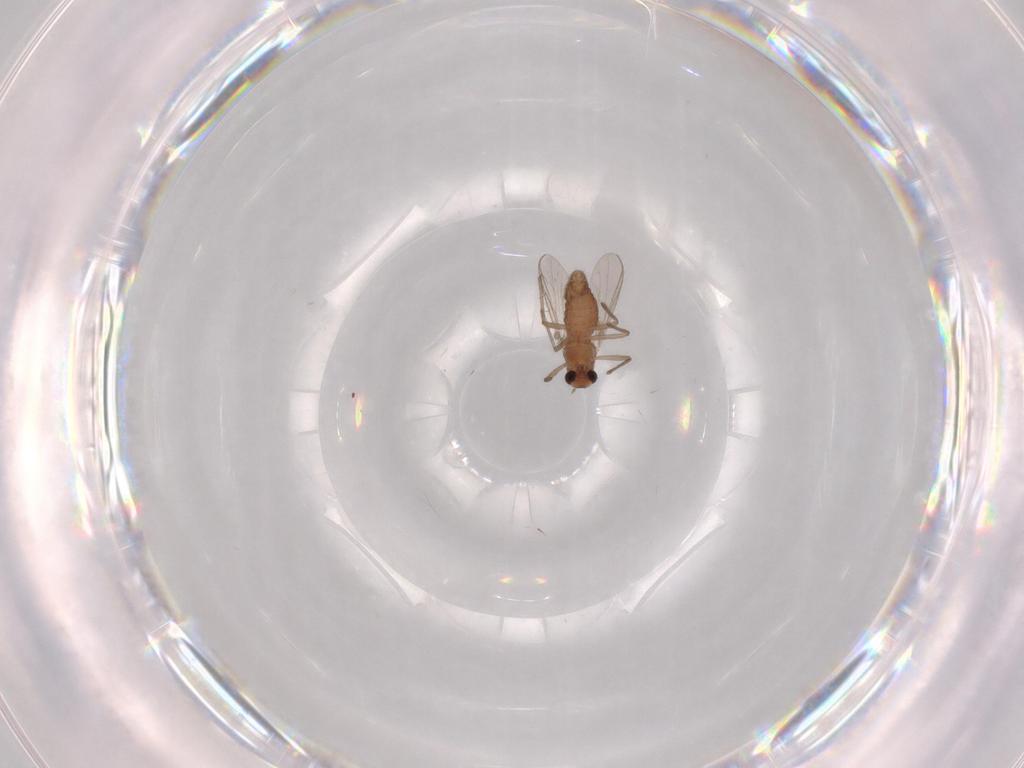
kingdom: Animalia
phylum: Arthropoda
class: Insecta
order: Diptera
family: Chironomidae
